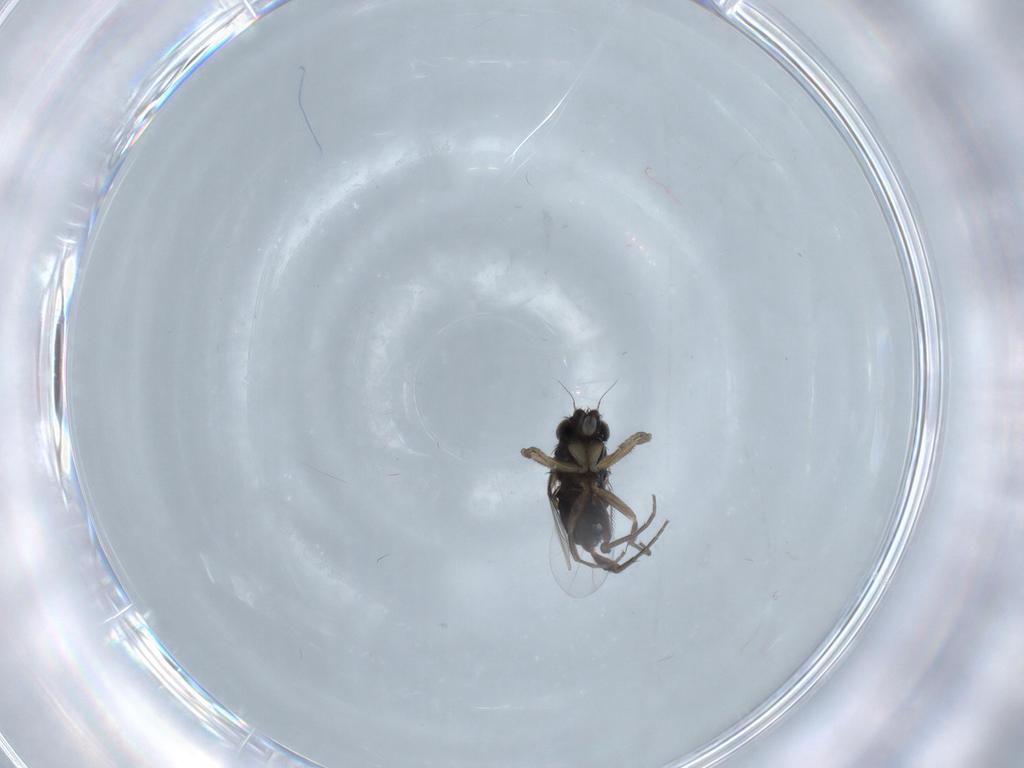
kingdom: Animalia
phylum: Arthropoda
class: Insecta
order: Diptera
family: Phoridae
